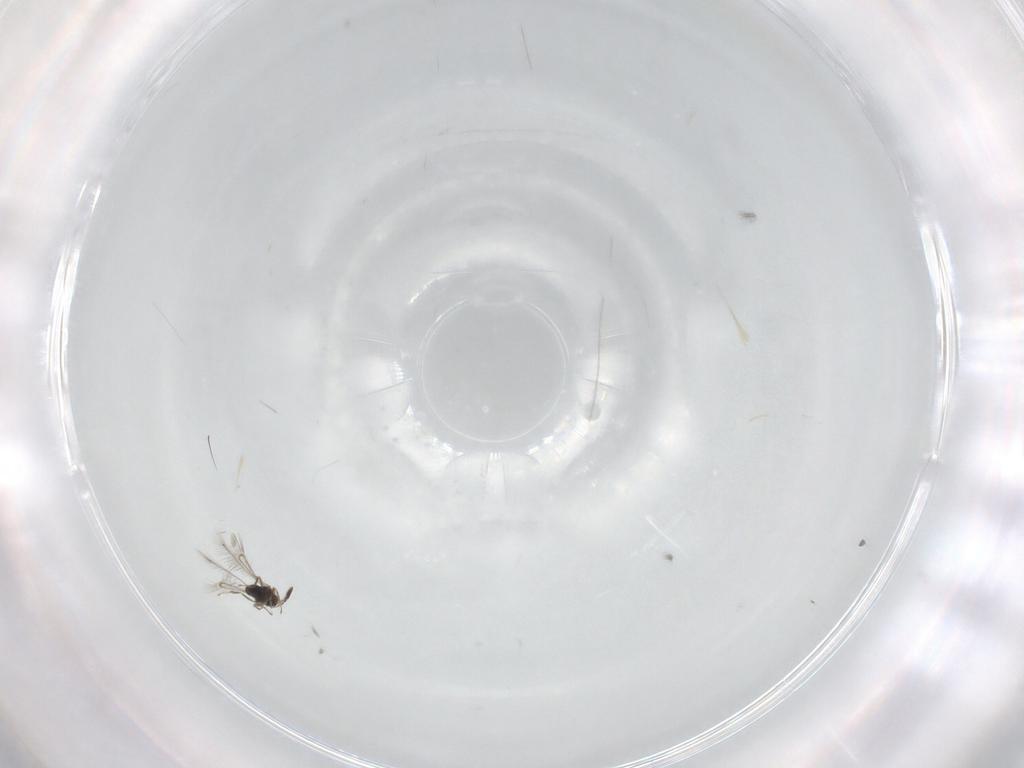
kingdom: Animalia
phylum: Arthropoda
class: Insecta
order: Hymenoptera
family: Mymaridae
